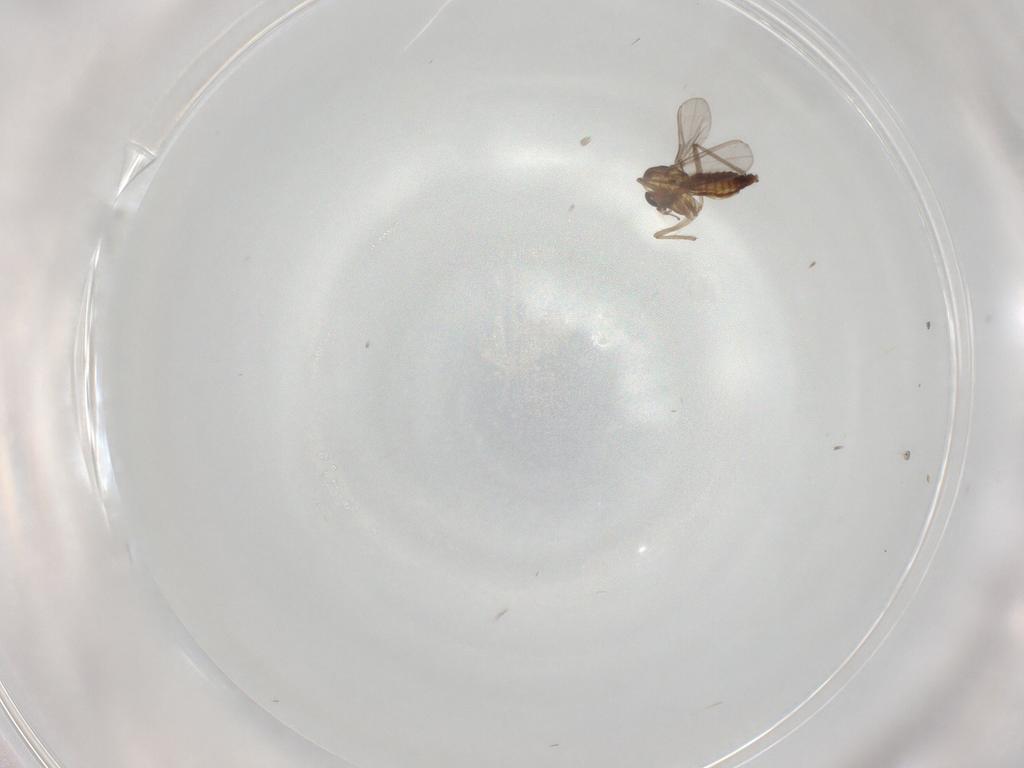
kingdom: Animalia
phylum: Arthropoda
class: Insecta
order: Diptera
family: Chironomidae
